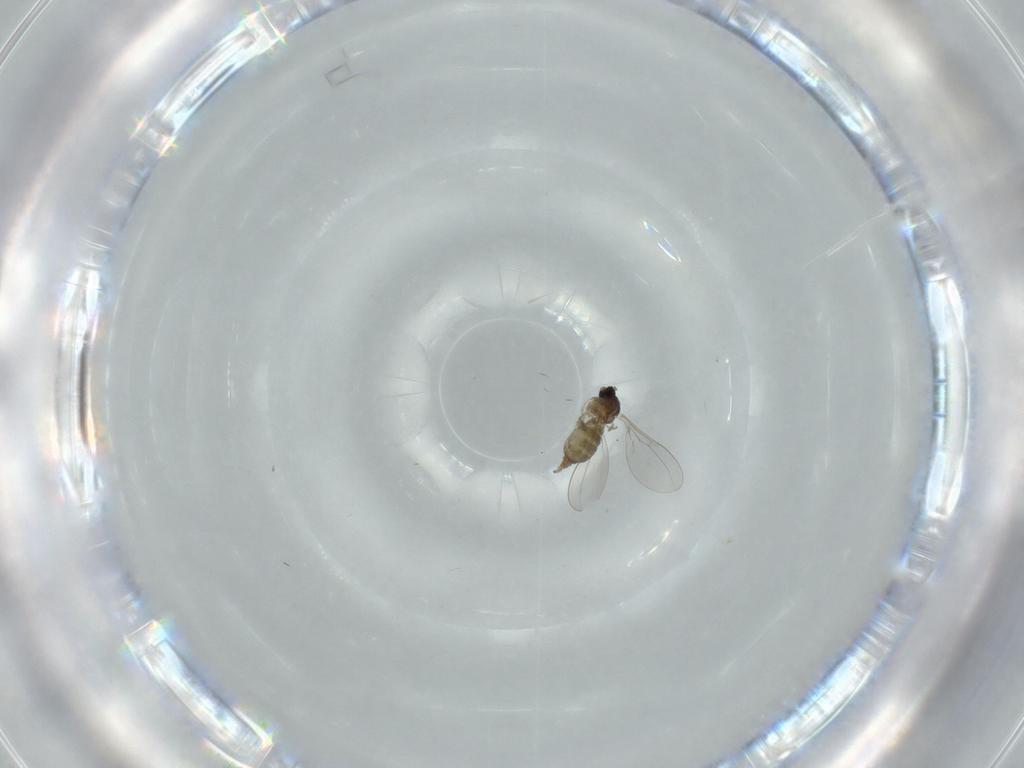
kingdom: Animalia
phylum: Arthropoda
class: Insecta
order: Diptera
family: Cecidomyiidae
